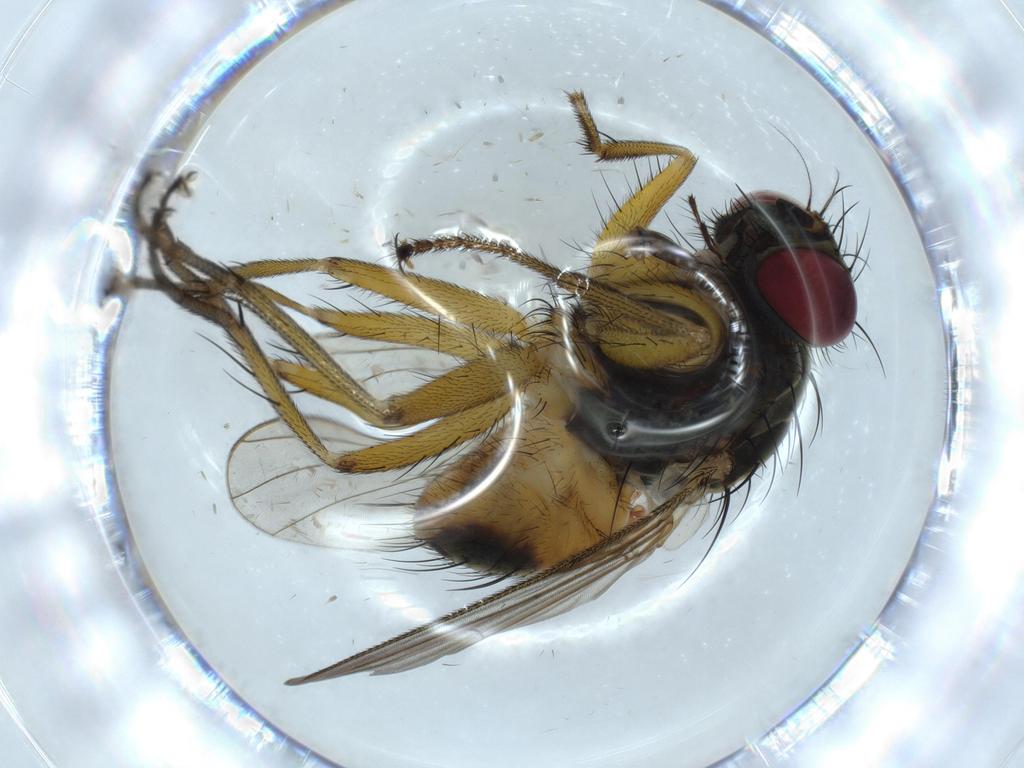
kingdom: Animalia
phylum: Arthropoda
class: Insecta
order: Diptera
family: Muscidae
